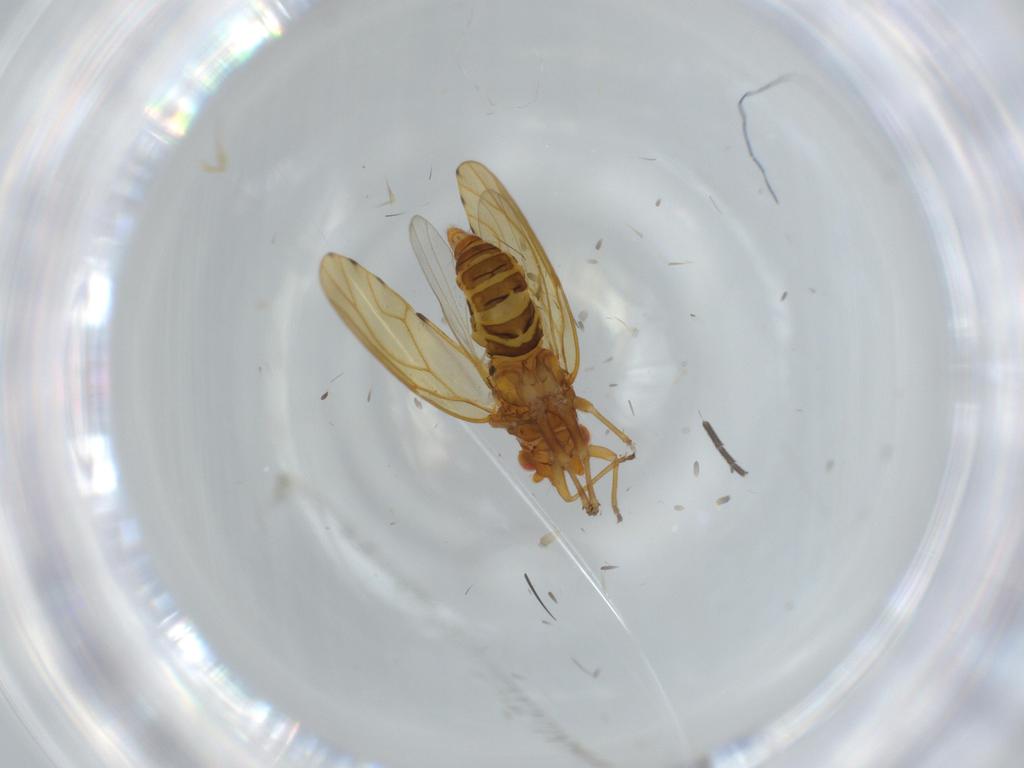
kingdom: Animalia
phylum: Arthropoda
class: Insecta
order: Hemiptera
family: Psylloidea_incertae_sedis
